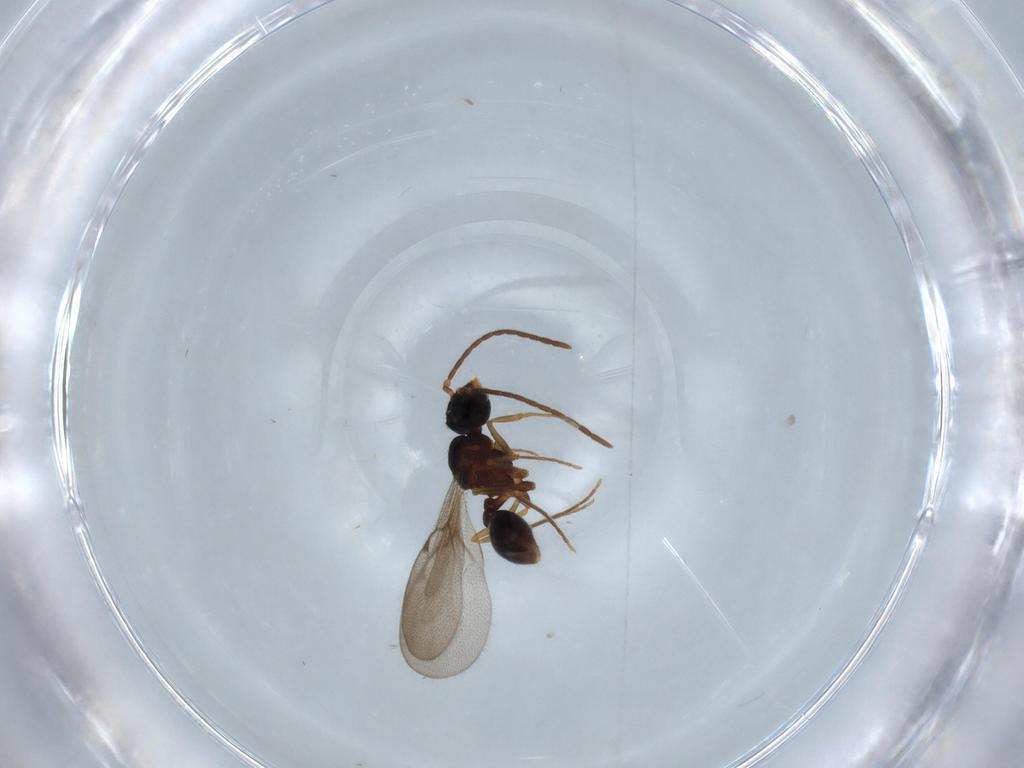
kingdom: Animalia
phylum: Arthropoda
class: Insecta
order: Hymenoptera
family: Formicidae
